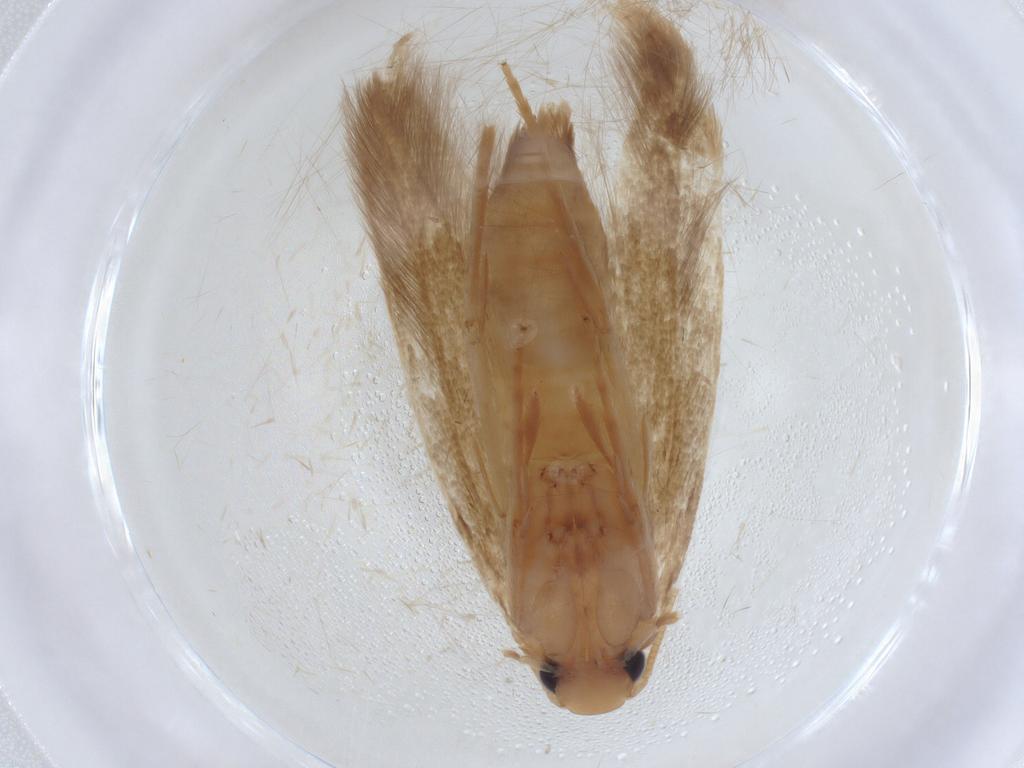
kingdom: Animalia
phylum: Arthropoda
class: Insecta
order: Lepidoptera
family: Tineidae
